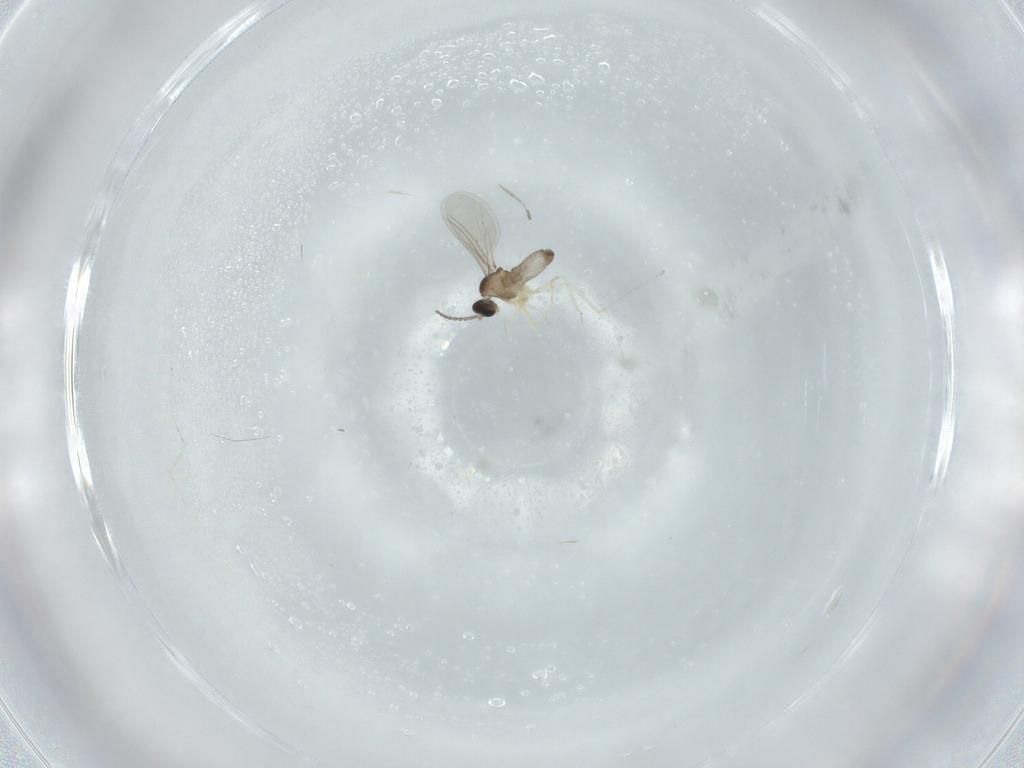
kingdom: Animalia
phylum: Arthropoda
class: Insecta
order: Diptera
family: Cecidomyiidae
